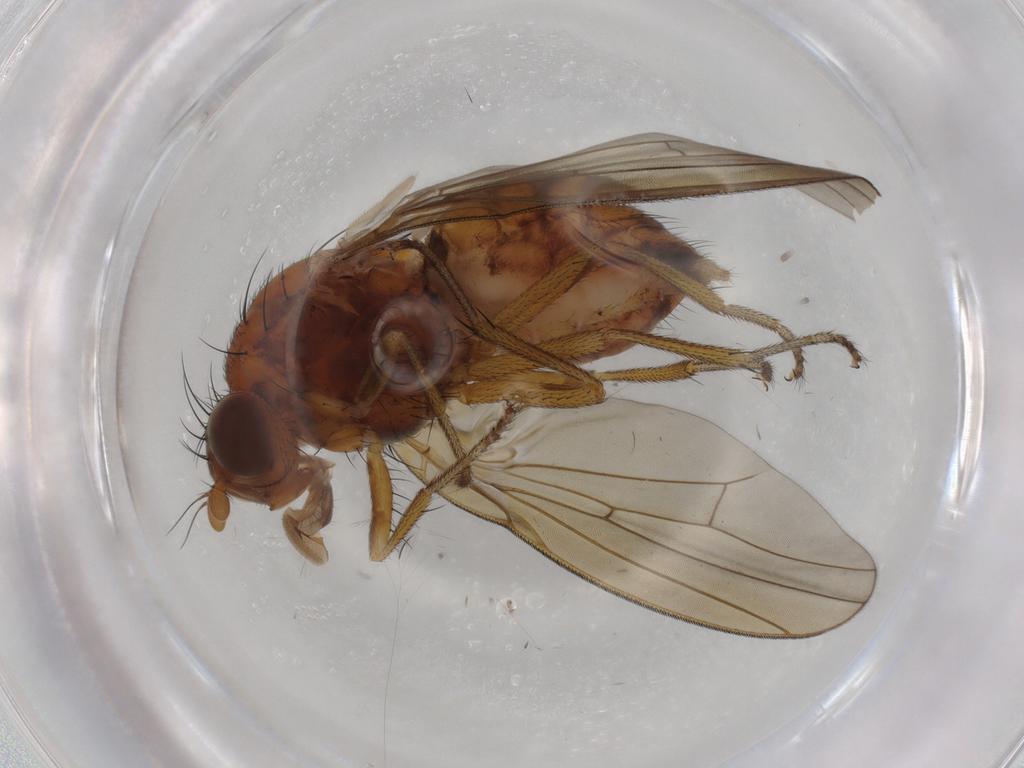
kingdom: Animalia
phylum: Arthropoda
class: Insecta
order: Diptera
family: Lauxaniidae
